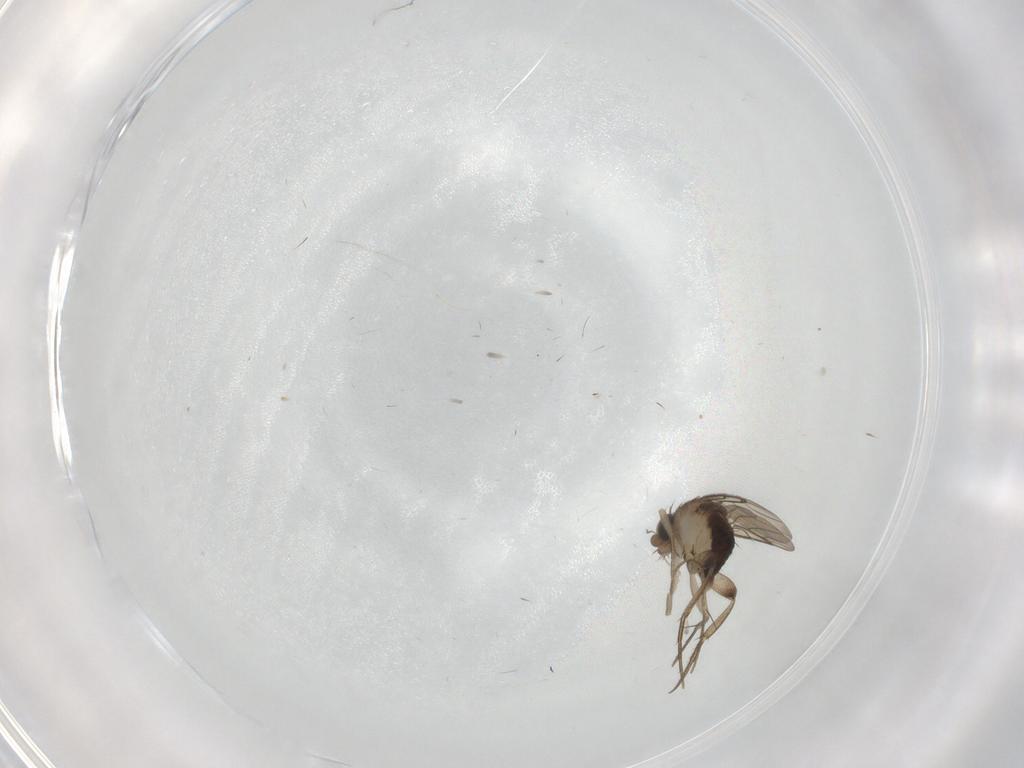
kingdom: Animalia
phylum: Arthropoda
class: Insecta
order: Diptera
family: Phoridae
